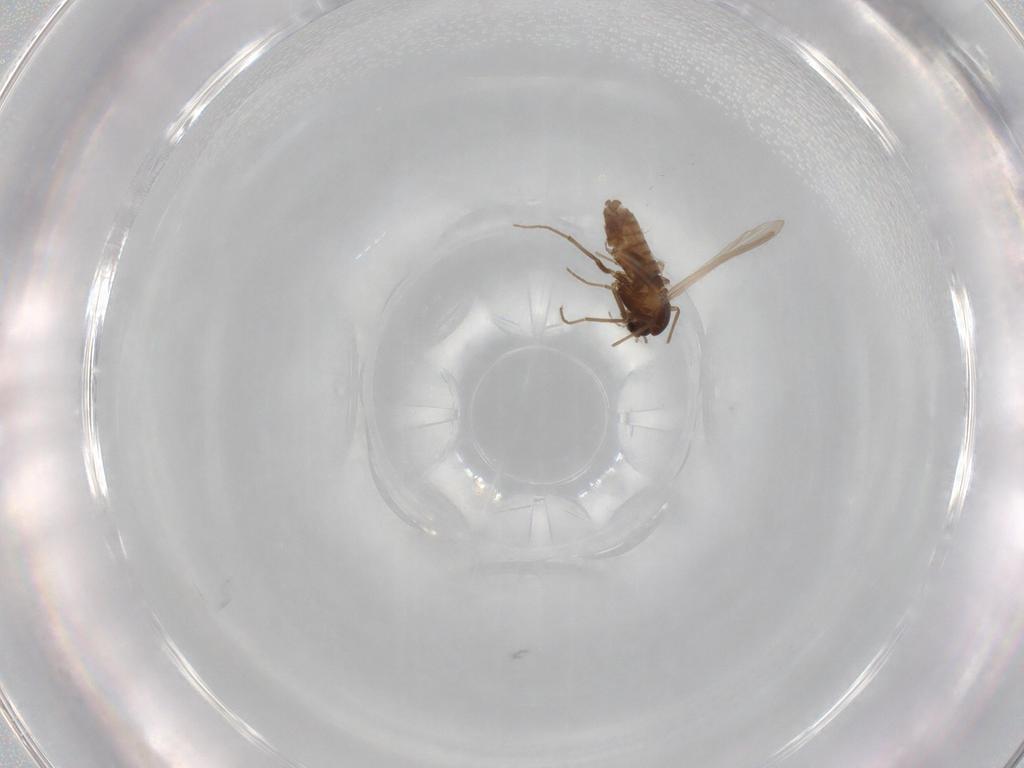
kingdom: Animalia
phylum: Arthropoda
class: Insecta
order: Diptera
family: Chironomidae
